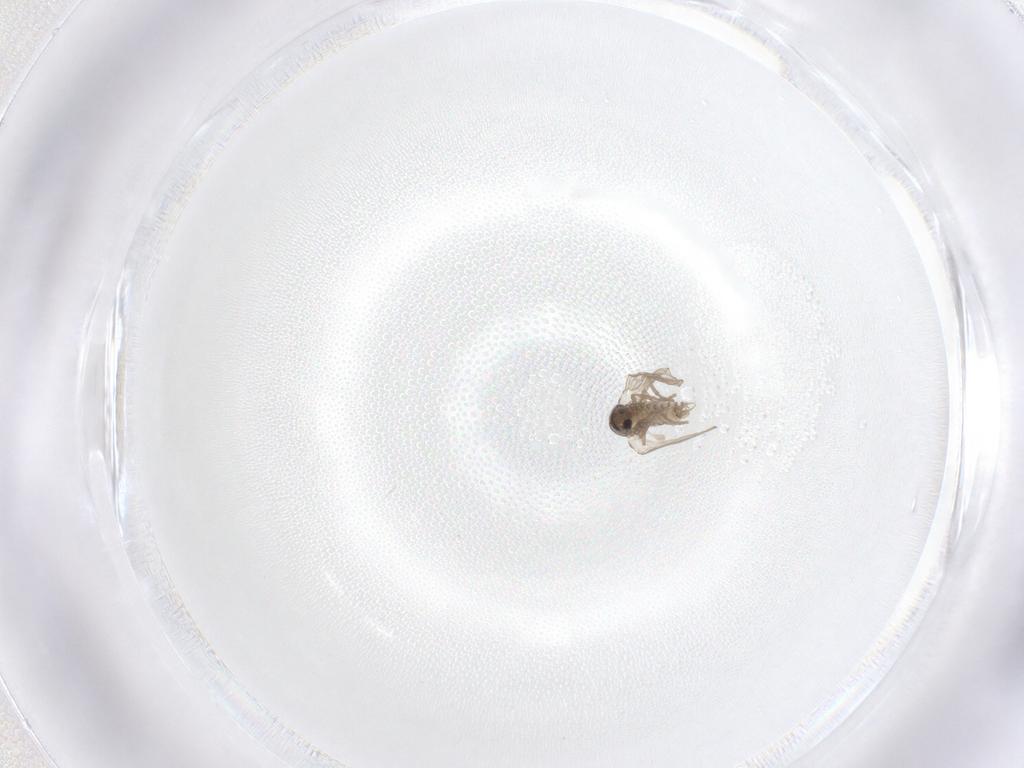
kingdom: Animalia
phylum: Arthropoda
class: Insecta
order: Diptera
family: Psychodidae
